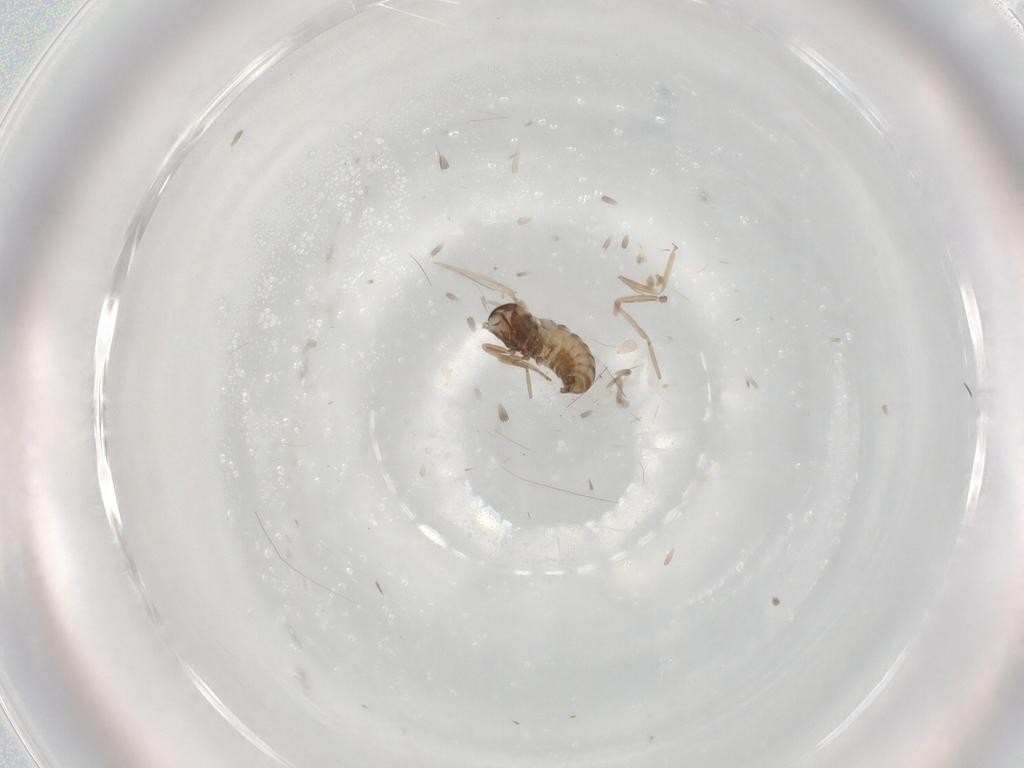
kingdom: Animalia
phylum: Arthropoda
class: Insecta
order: Diptera
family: Cecidomyiidae
